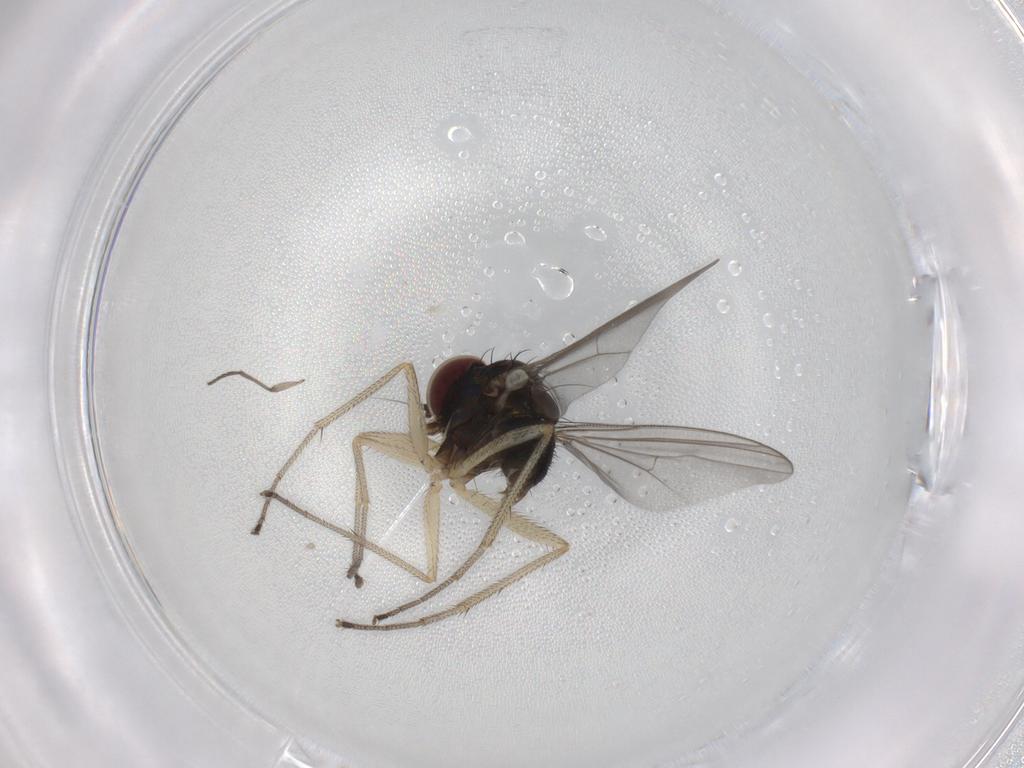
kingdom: Animalia
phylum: Arthropoda
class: Insecta
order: Diptera
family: Dolichopodidae
